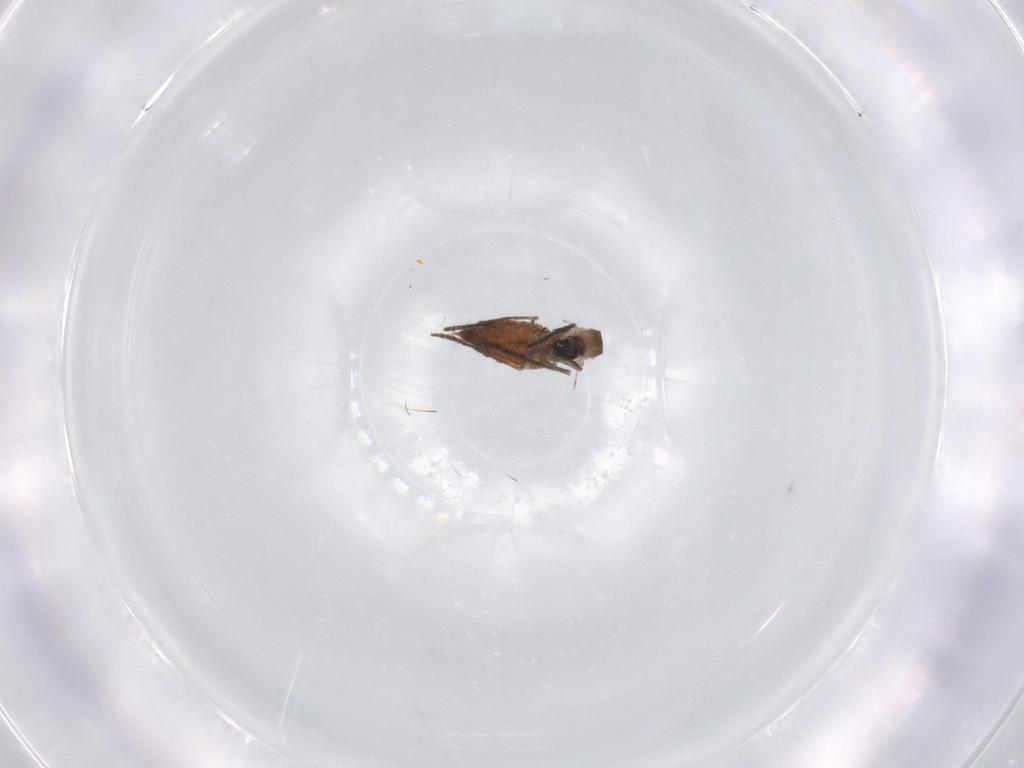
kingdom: Animalia
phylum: Arthropoda
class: Insecta
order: Diptera
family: Psychodidae
